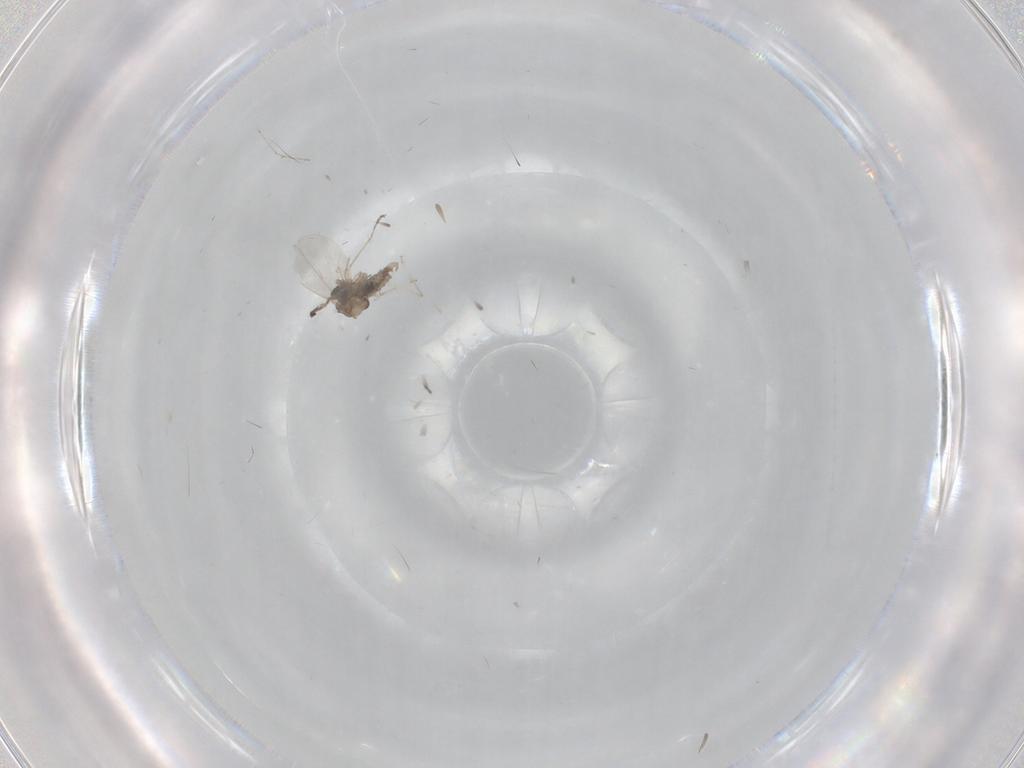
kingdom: Animalia
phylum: Arthropoda
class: Insecta
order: Diptera
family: Cecidomyiidae
